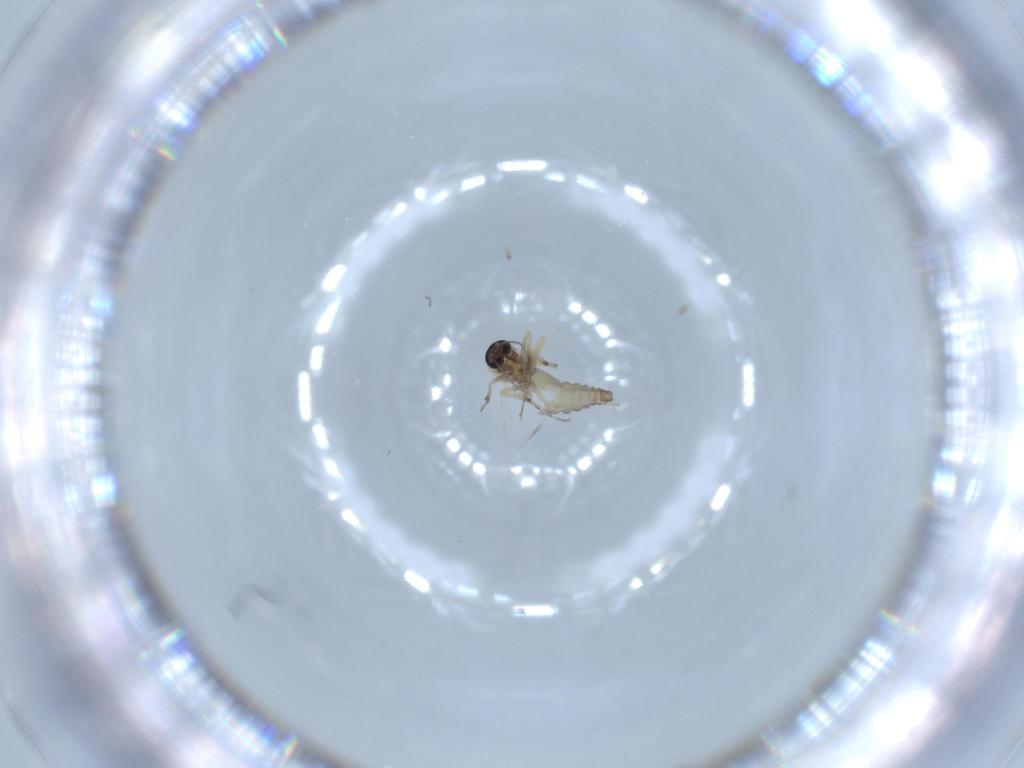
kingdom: Animalia
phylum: Arthropoda
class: Insecta
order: Diptera
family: Ceratopogonidae
